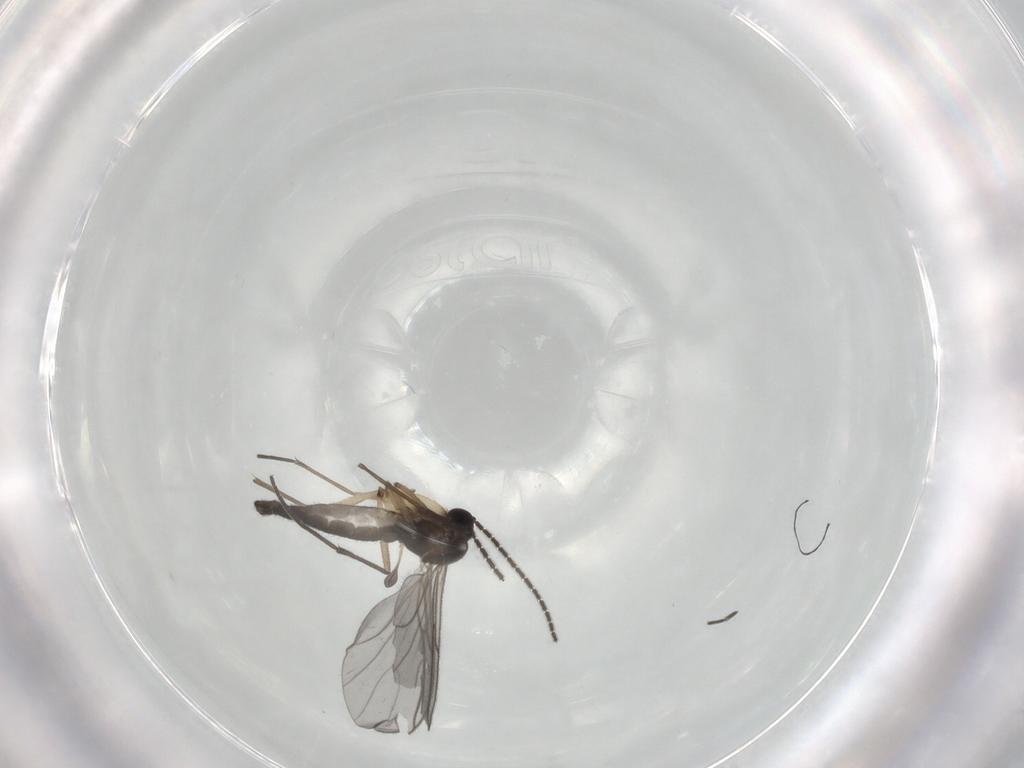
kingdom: Animalia
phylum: Arthropoda
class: Insecta
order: Diptera
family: Sciaridae
